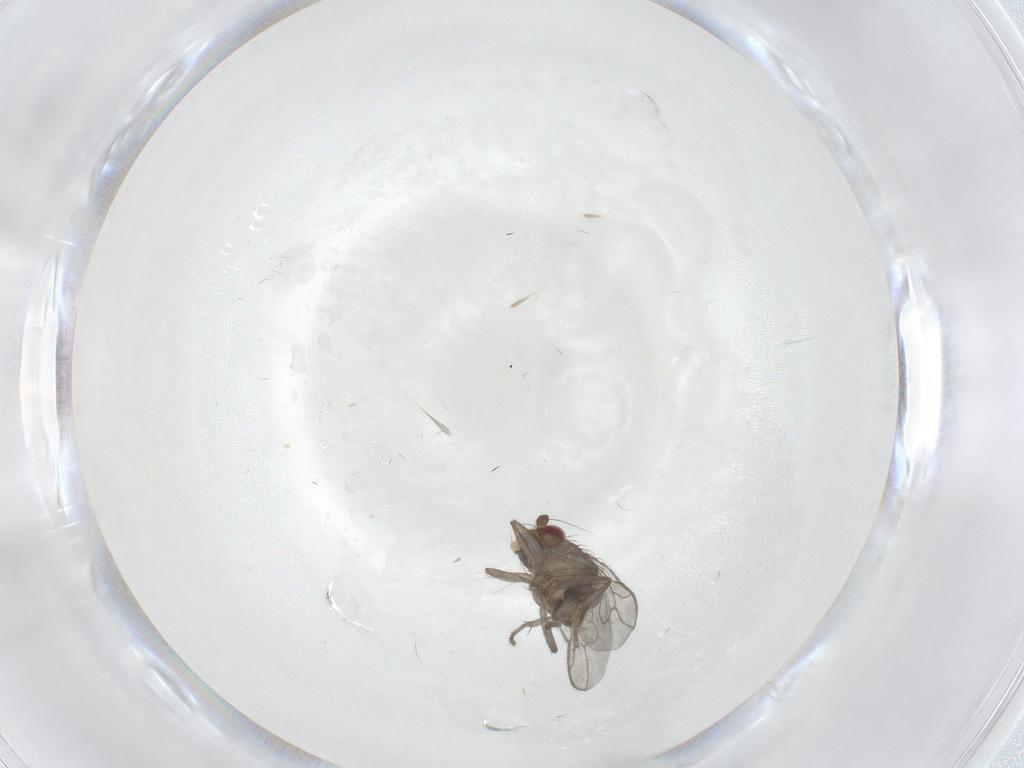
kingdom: Animalia
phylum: Arthropoda
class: Insecta
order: Diptera
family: Sphaeroceridae
